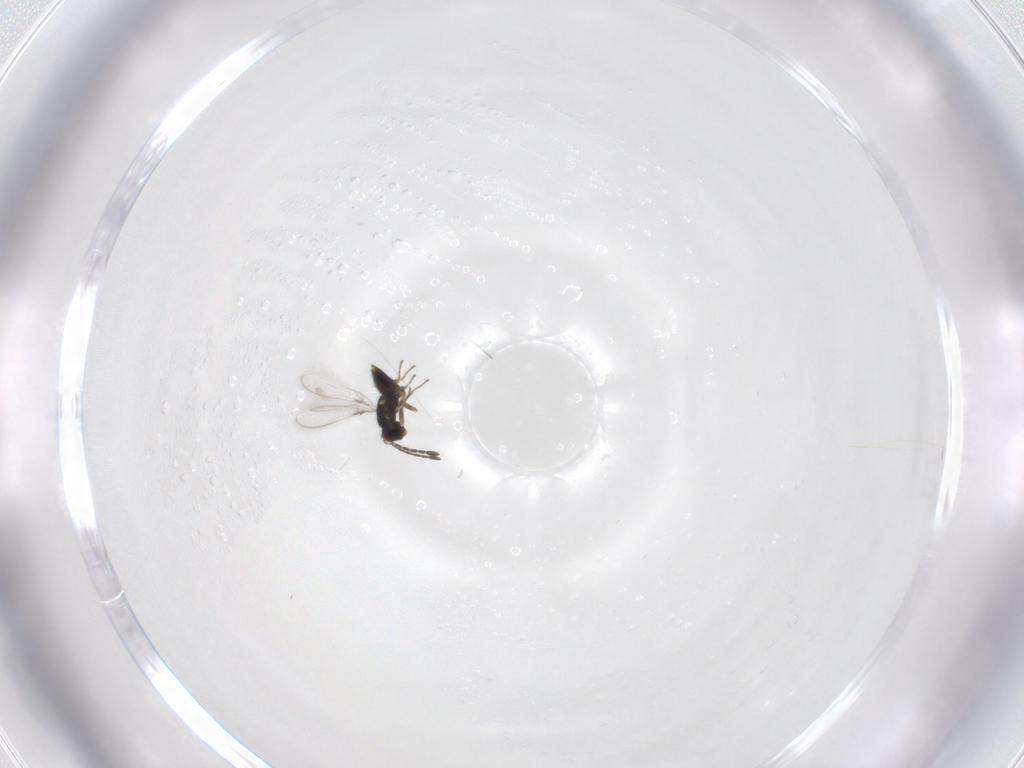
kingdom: Animalia
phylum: Arthropoda
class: Insecta
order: Hymenoptera
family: Mymaridae
